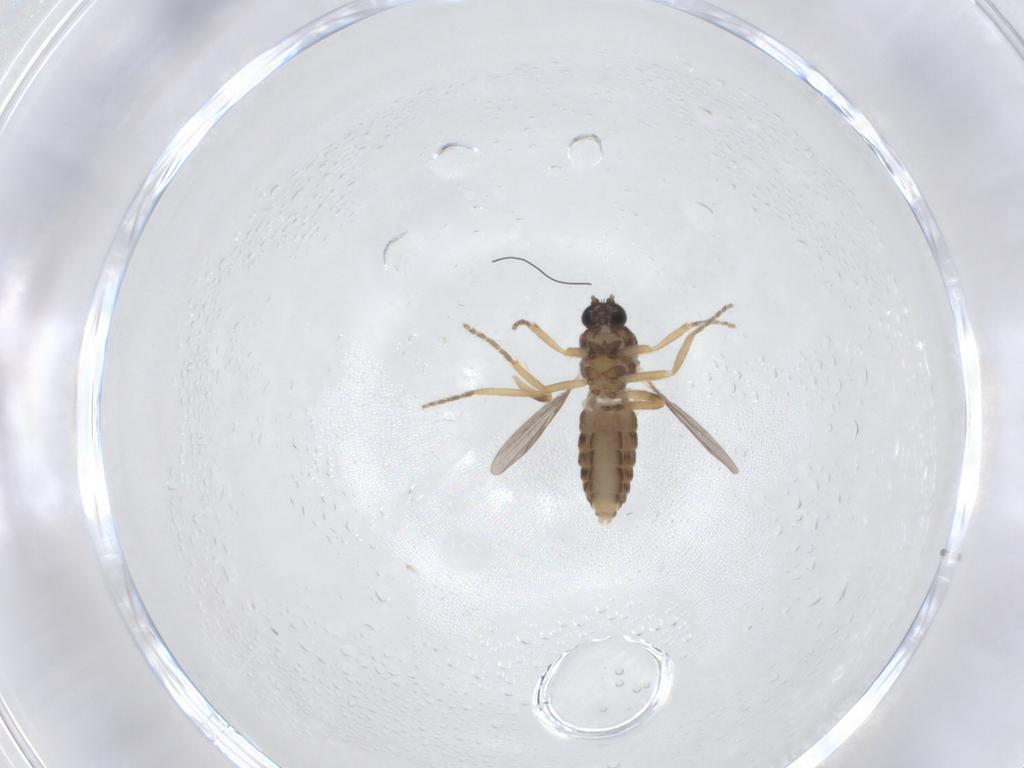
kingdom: Animalia
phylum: Arthropoda
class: Insecta
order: Diptera
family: Ceratopogonidae
